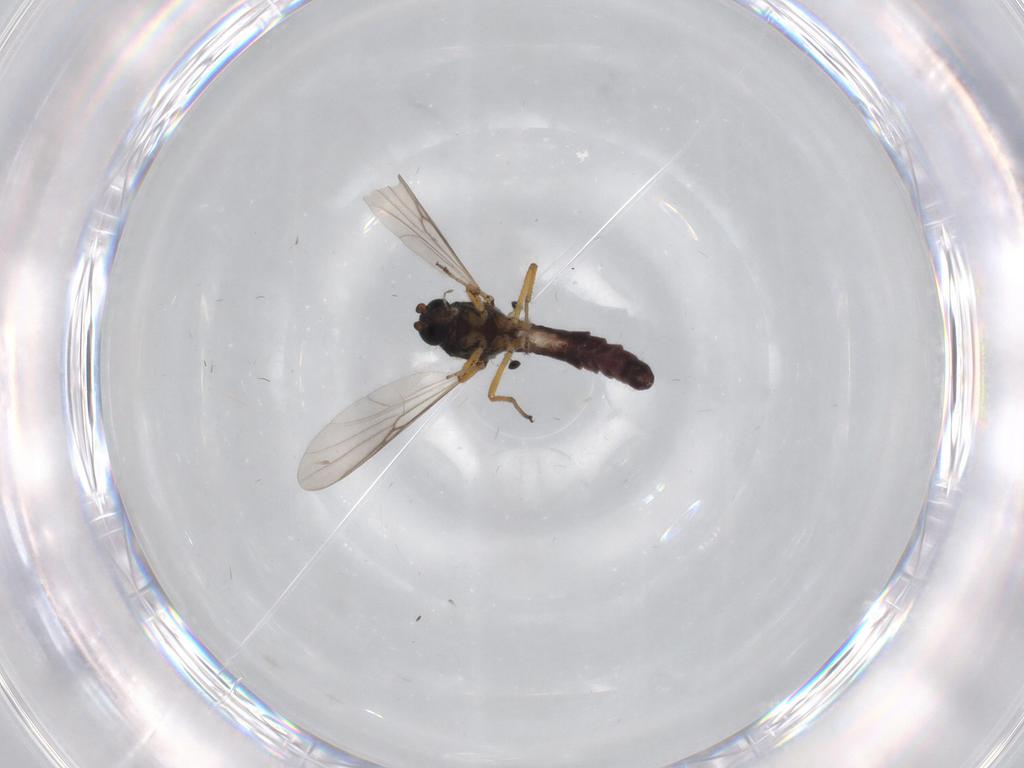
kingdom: Animalia
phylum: Arthropoda
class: Insecta
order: Diptera
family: Ceratopogonidae
